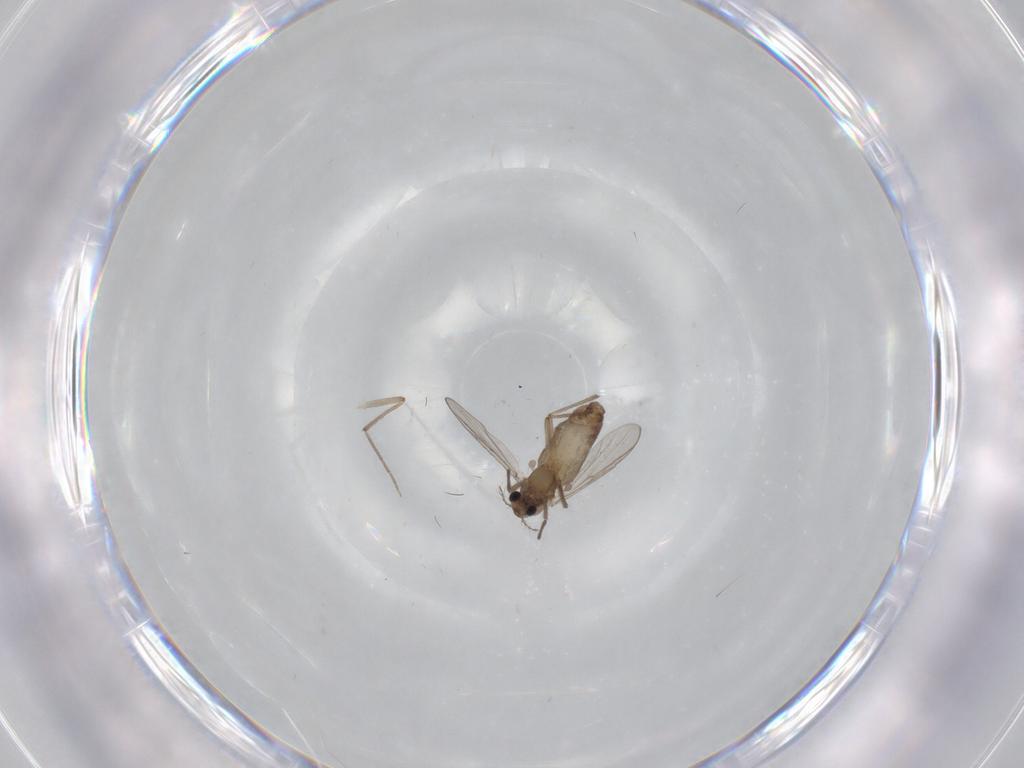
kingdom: Animalia
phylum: Arthropoda
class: Insecta
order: Diptera
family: Chironomidae
